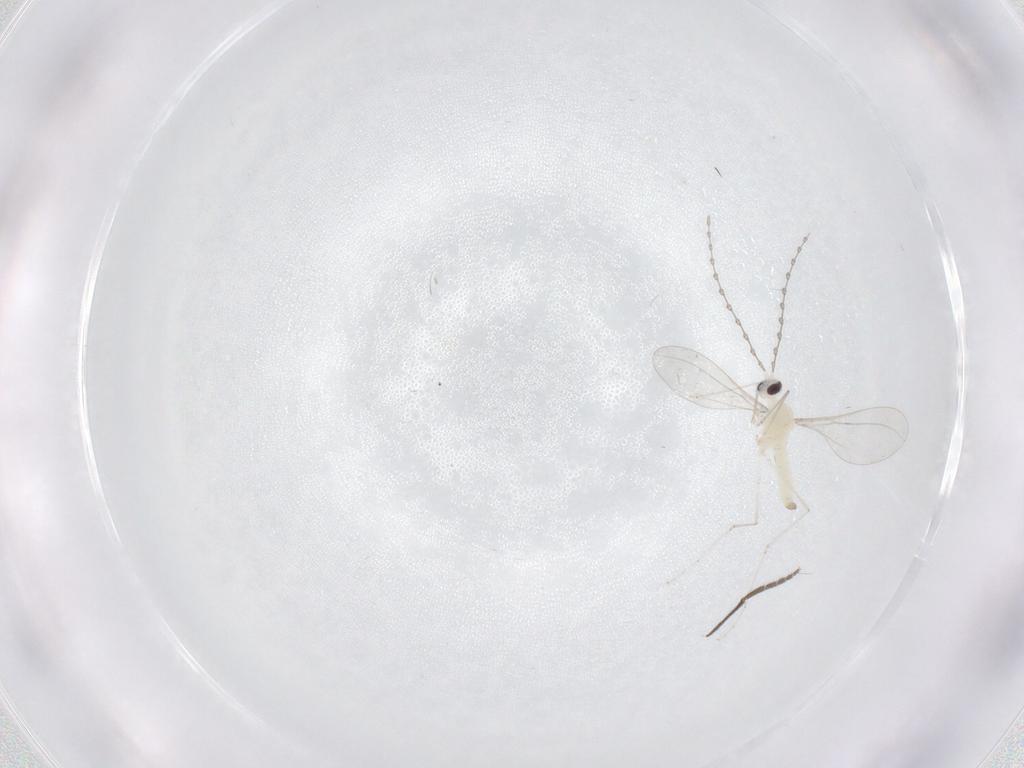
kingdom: Animalia
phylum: Arthropoda
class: Insecta
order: Diptera
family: Cecidomyiidae
